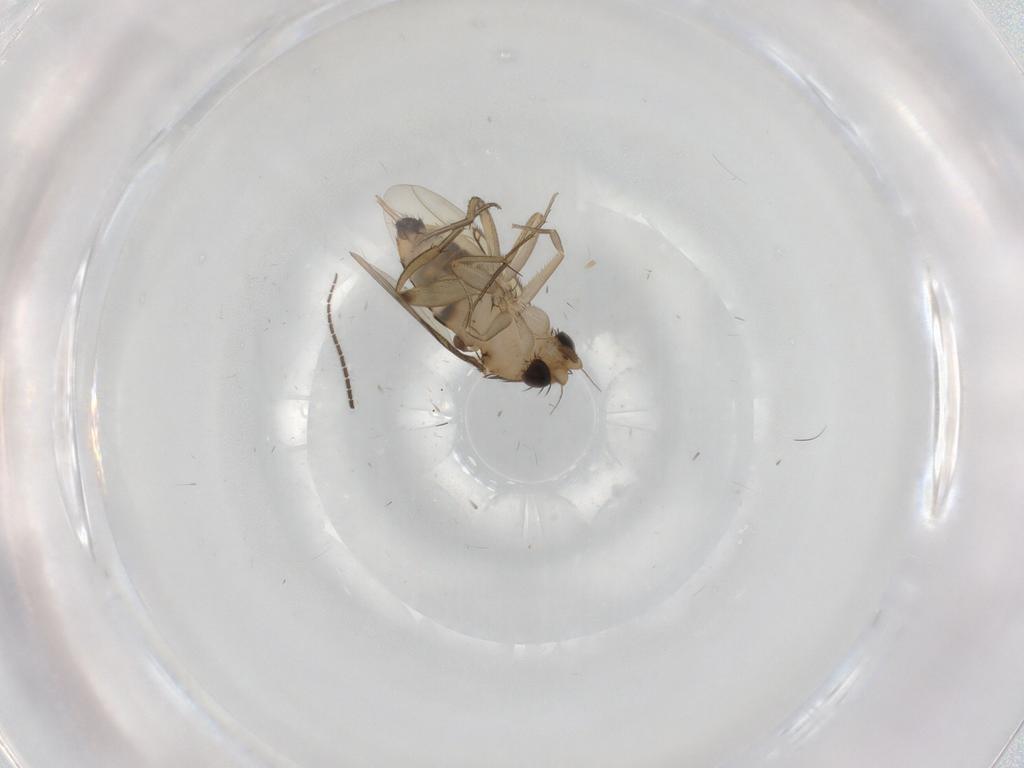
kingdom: Animalia
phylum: Arthropoda
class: Insecta
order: Diptera
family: Phoridae
